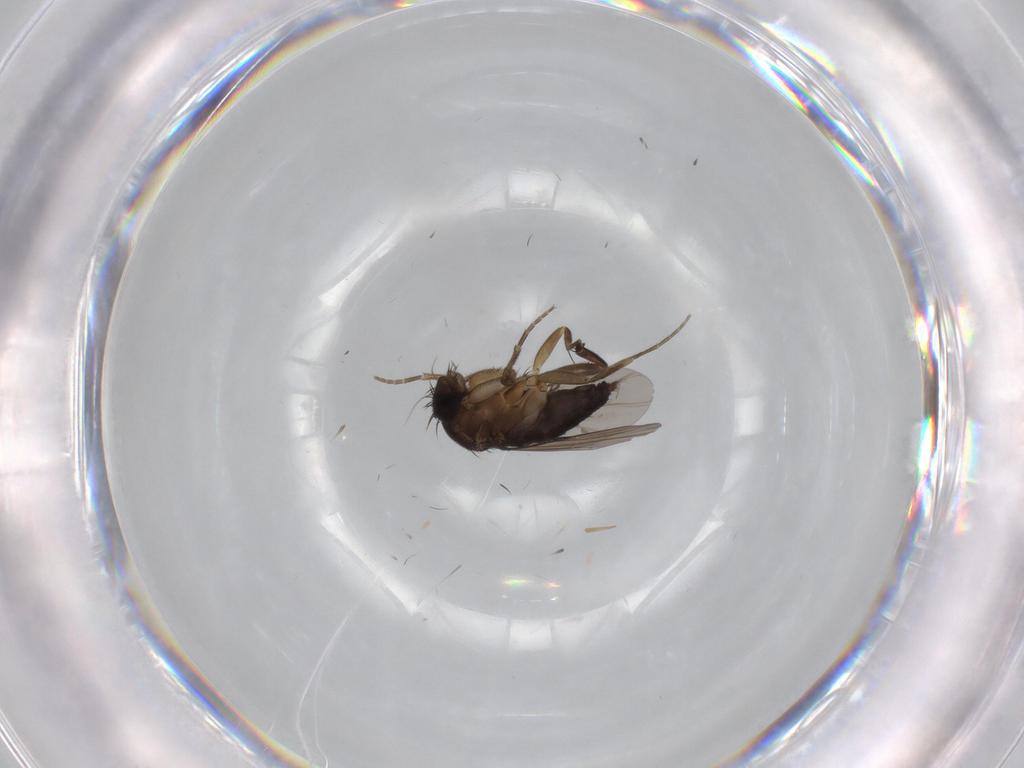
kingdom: Animalia
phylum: Arthropoda
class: Insecta
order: Diptera
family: Phoridae
